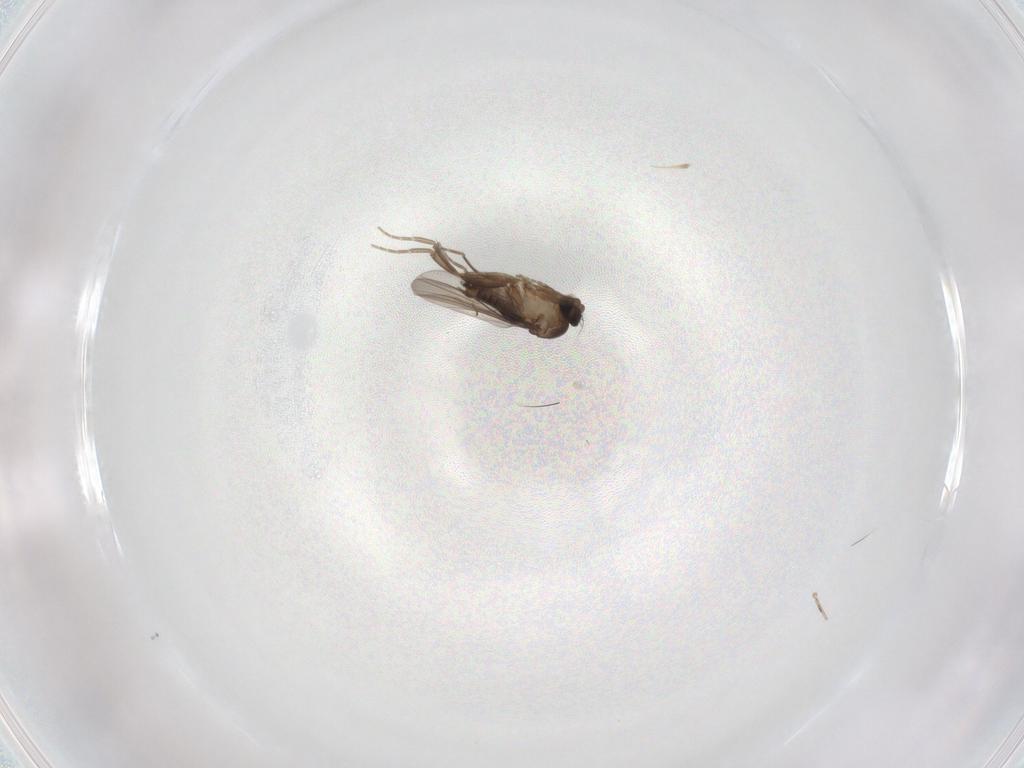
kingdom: Animalia
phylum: Arthropoda
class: Insecta
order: Diptera
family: Phoridae
